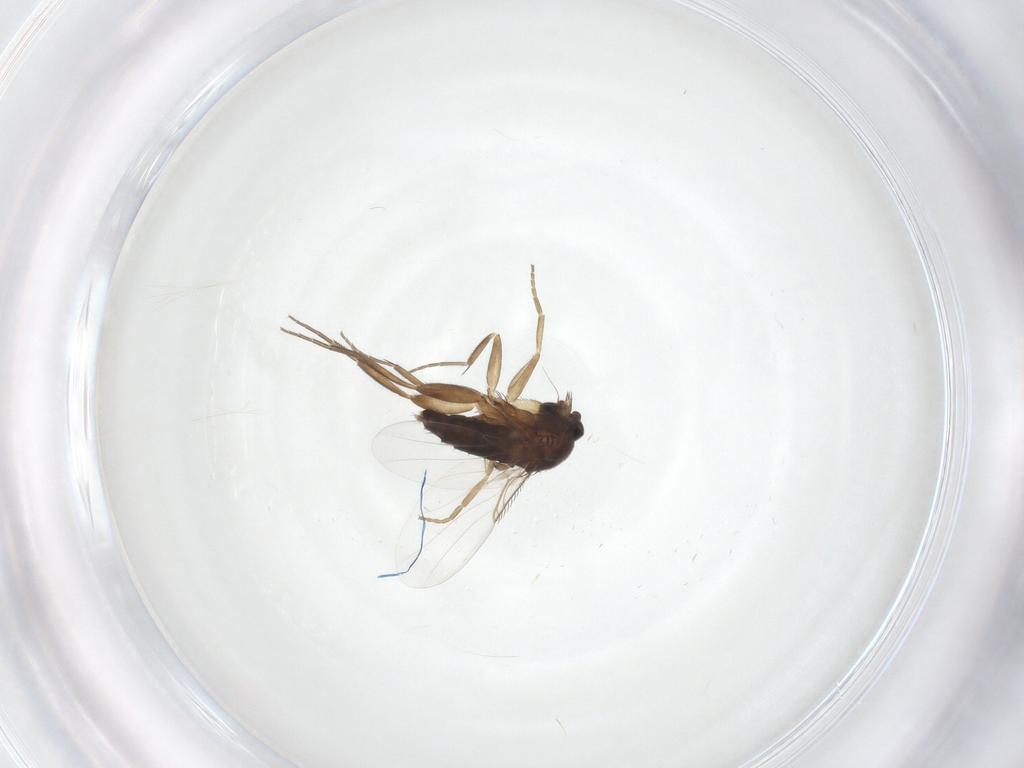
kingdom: Animalia
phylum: Arthropoda
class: Insecta
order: Diptera
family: Phoridae
